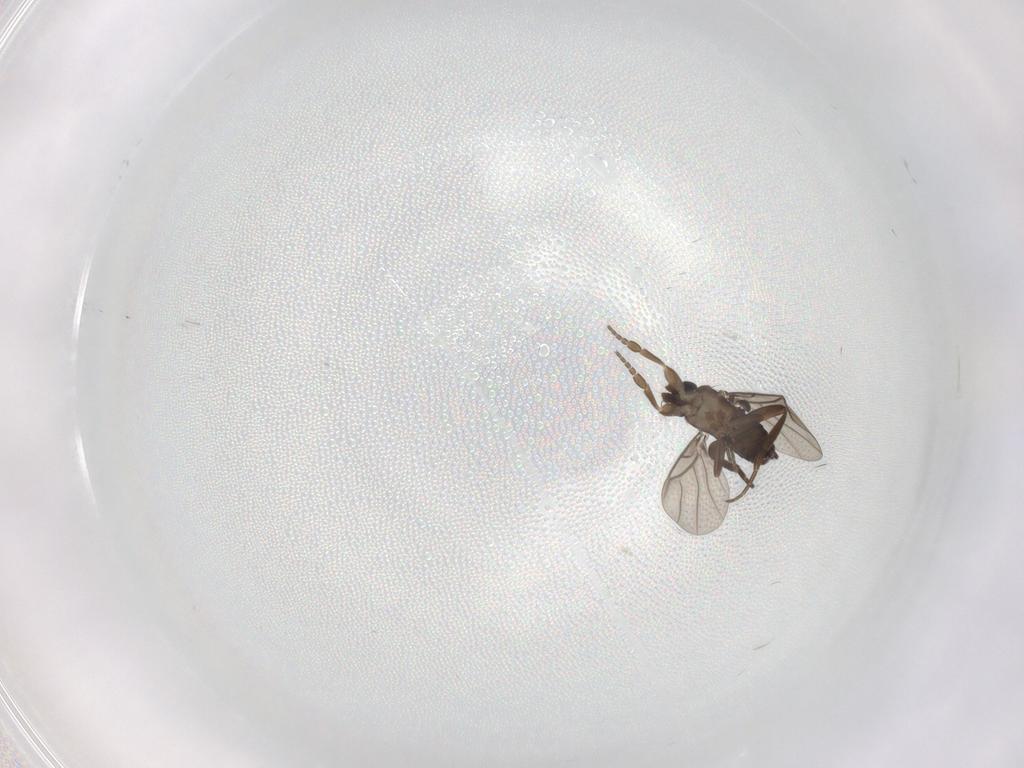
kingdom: Animalia
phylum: Arthropoda
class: Insecta
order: Diptera
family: Phoridae
